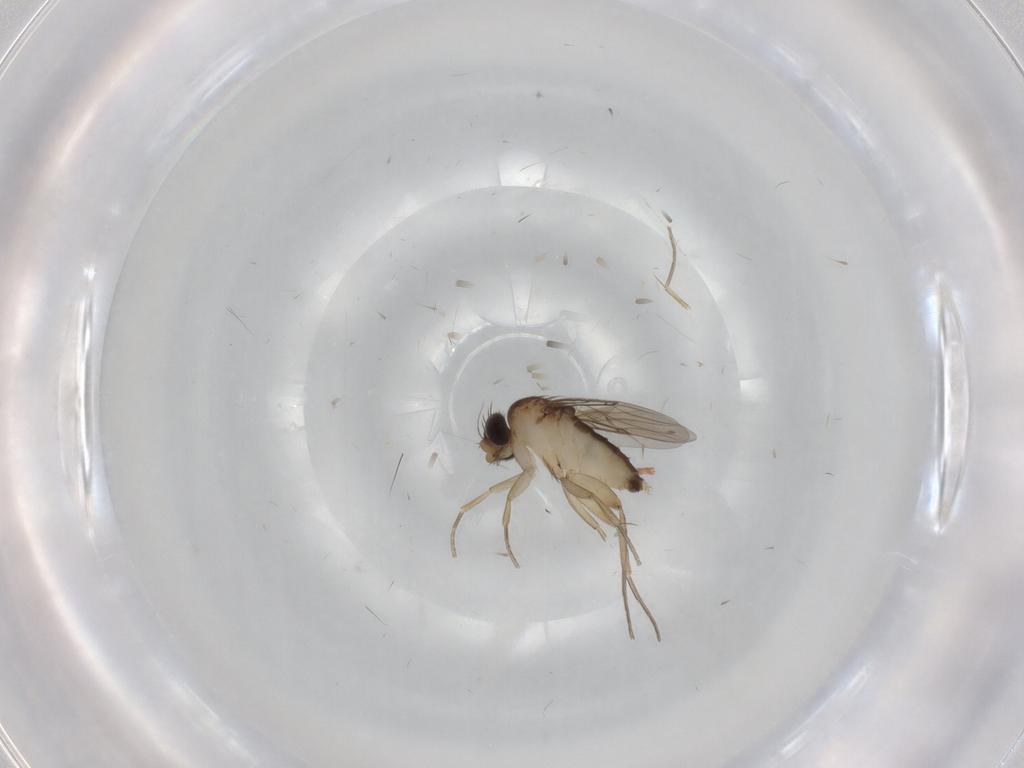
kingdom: Animalia
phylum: Arthropoda
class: Insecta
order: Diptera
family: Phoridae
